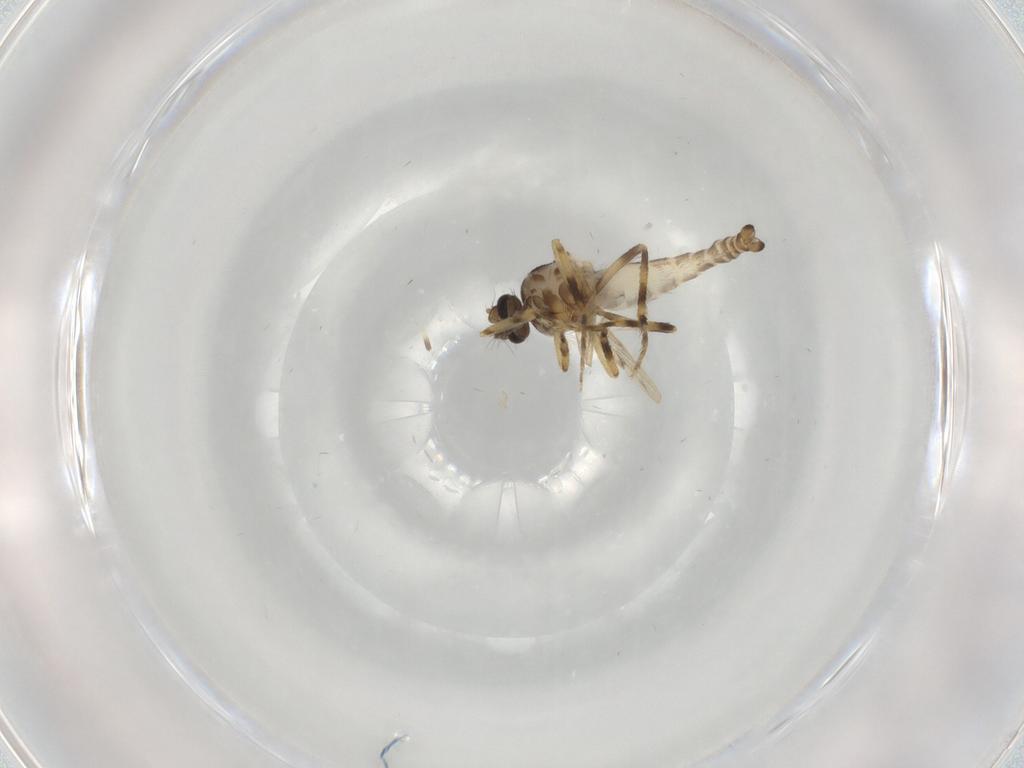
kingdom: Animalia
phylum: Arthropoda
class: Insecta
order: Diptera
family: Ceratopogonidae
